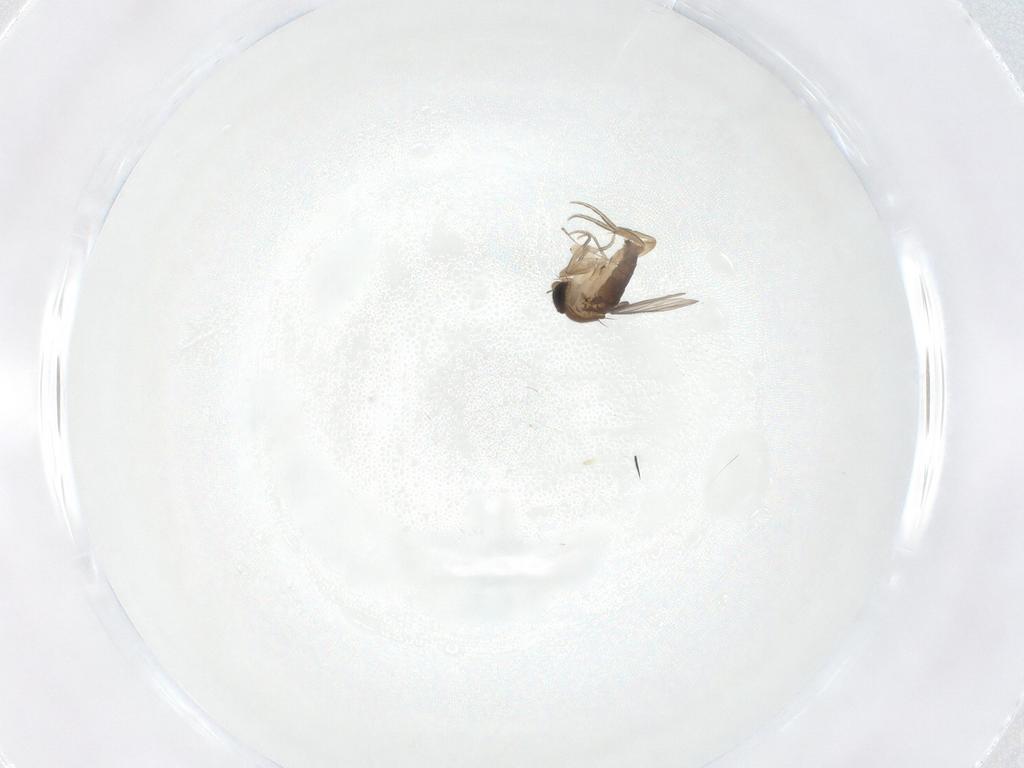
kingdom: Animalia
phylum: Arthropoda
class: Insecta
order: Diptera
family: Phoridae
